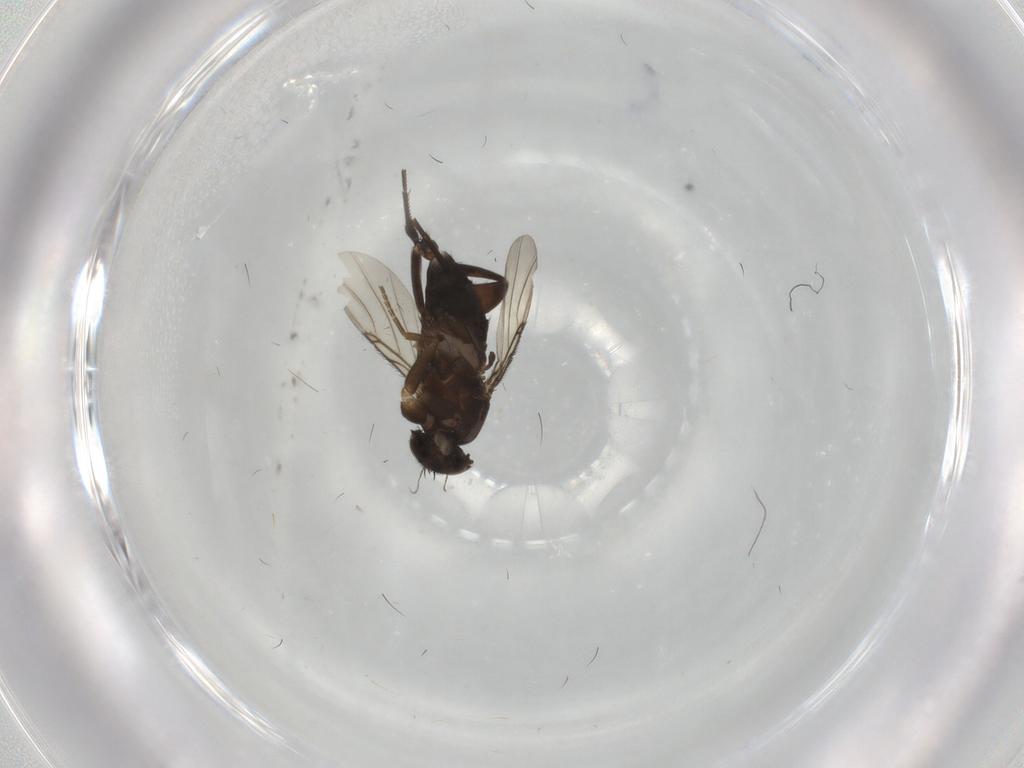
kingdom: Animalia
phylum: Arthropoda
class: Insecta
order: Diptera
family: Phoridae
